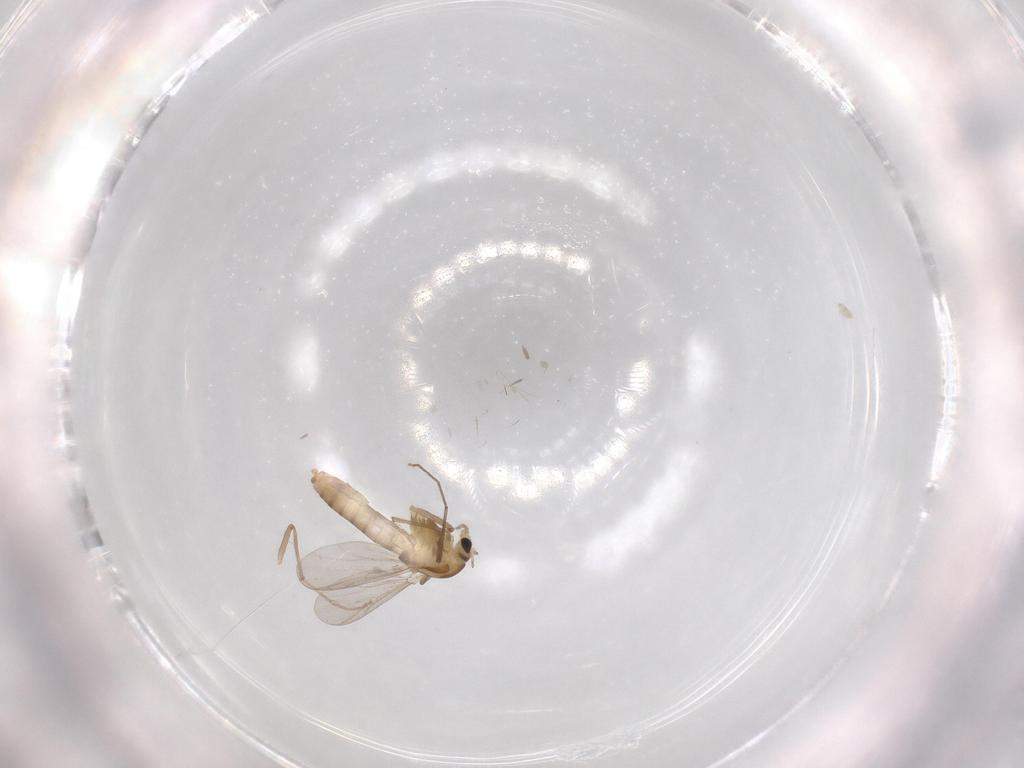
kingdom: Animalia
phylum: Arthropoda
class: Insecta
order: Diptera
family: Chironomidae
